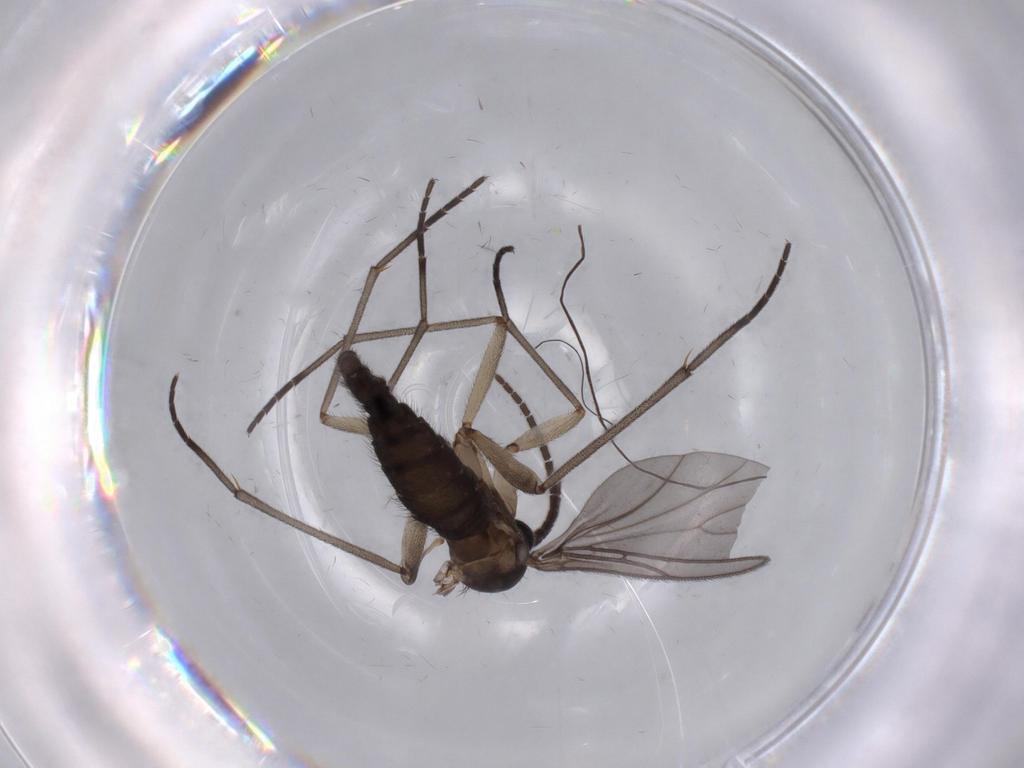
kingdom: Animalia
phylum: Arthropoda
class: Insecta
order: Diptera
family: Sciaridae
